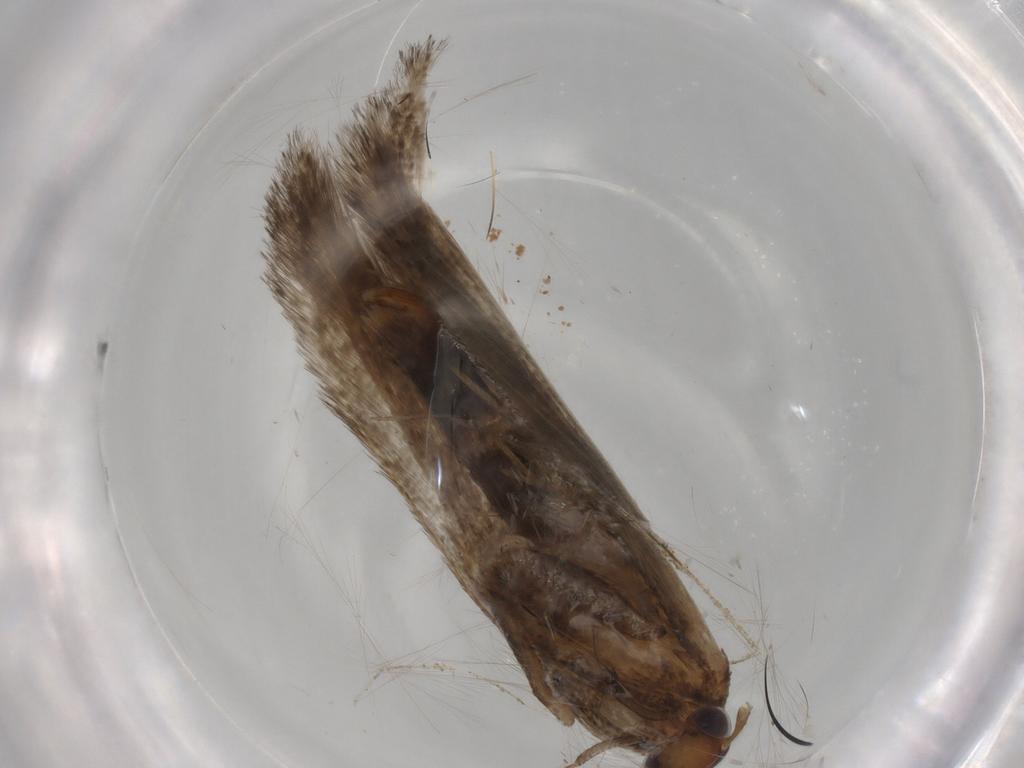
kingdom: Animalia
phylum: Arthropoda
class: Insecta
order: Lepidoptera
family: Gelechiidae
